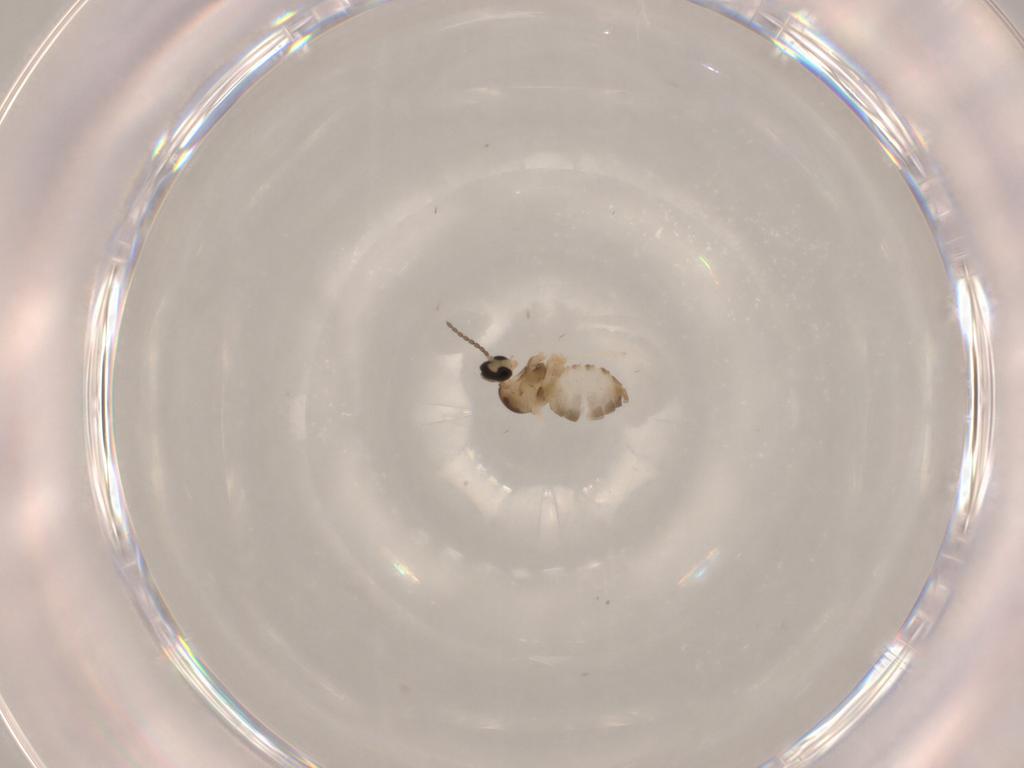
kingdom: Animalia
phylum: Arthropoda
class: Insecta
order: Diptera
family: Cecidomyiidae
